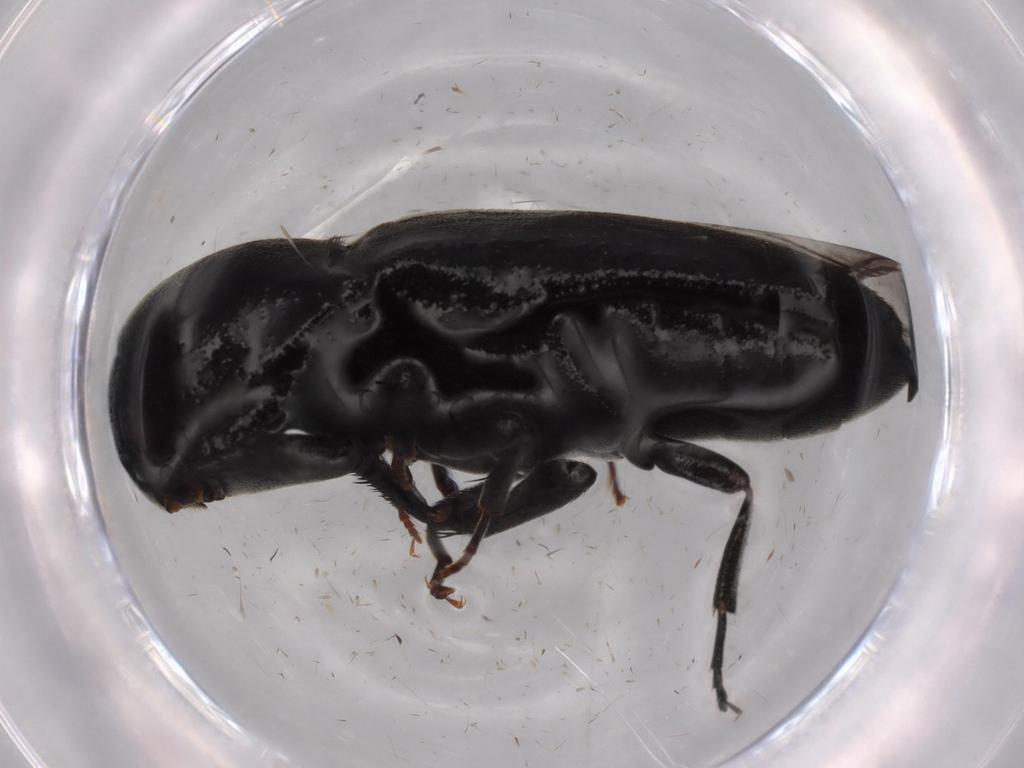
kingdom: Animalia
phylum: Arthropoda
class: Insecta
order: Coleoptera
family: Eucnemidae
